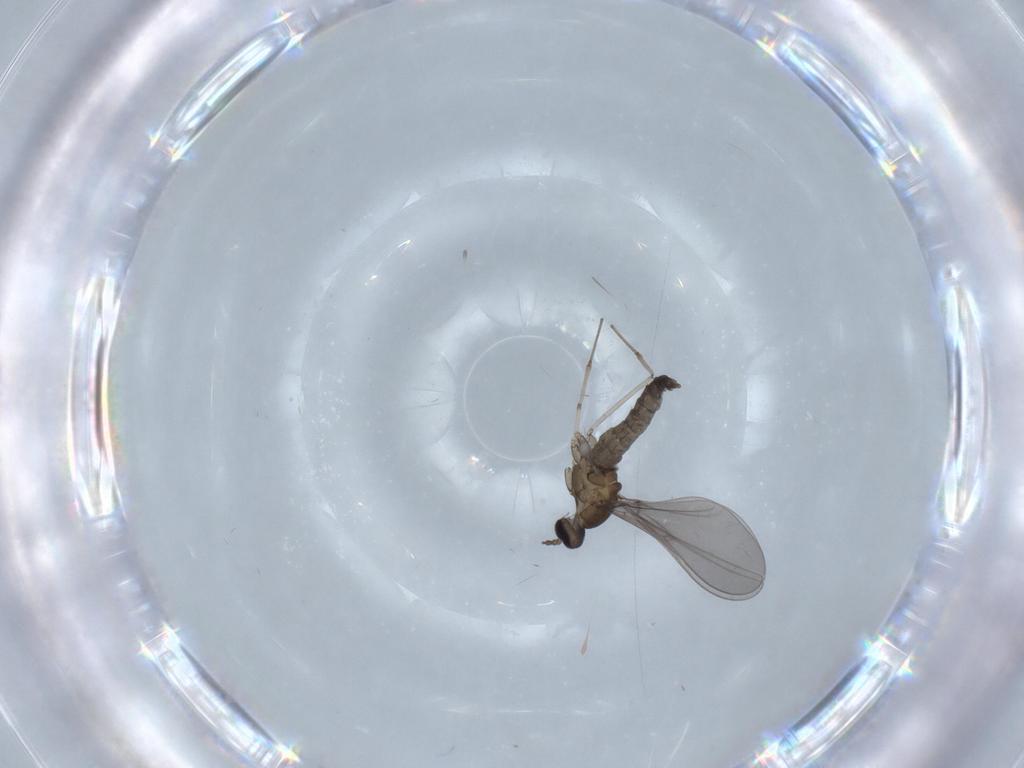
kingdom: Animalia
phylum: Arthropoda
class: Insecta
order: Diptera
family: Cecidomyiidae
